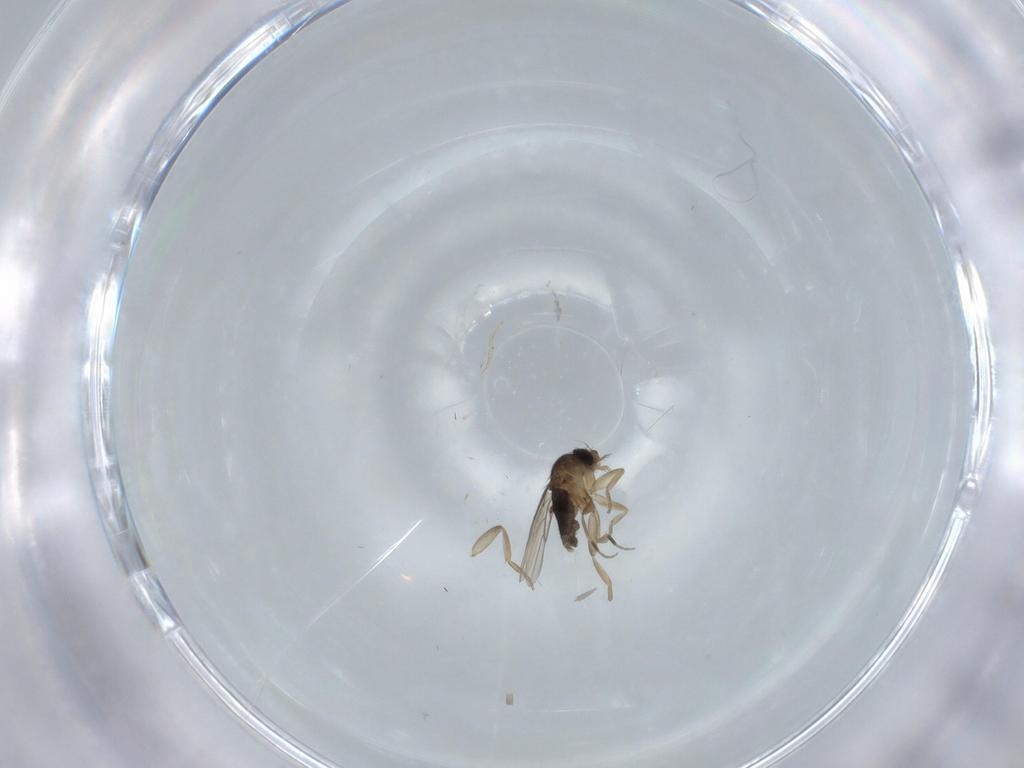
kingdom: Animalia
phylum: Arthropoda
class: Insecta
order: Diptera
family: Phoridae
